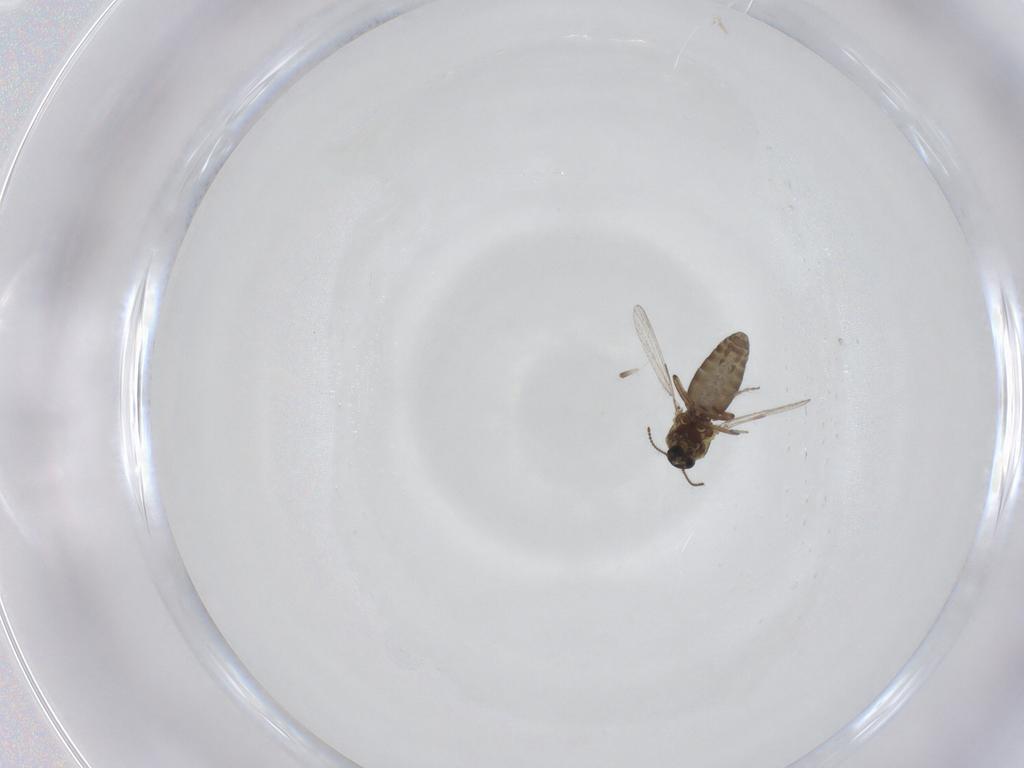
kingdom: Animalia
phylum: Arthropoda
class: Insecta
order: Diptera
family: Ceratopogonidae
